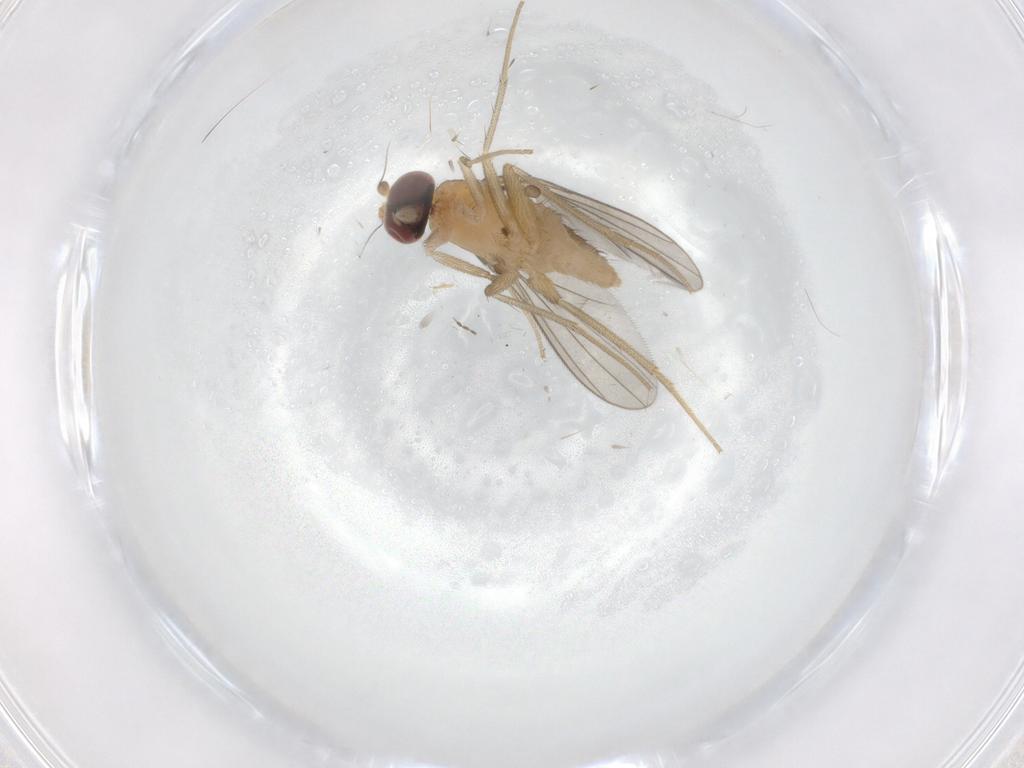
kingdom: Animalia
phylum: Arthropoda
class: Insecta
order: Diptera
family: Dolichopodidae
